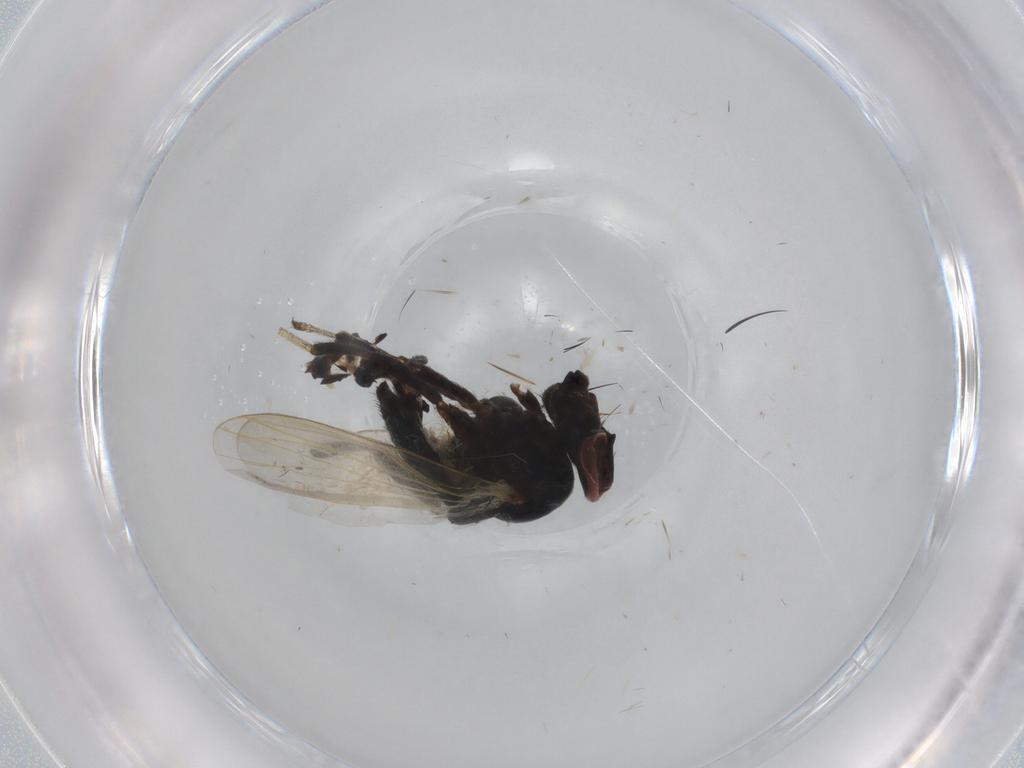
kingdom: Animalia
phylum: Arthropoda
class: Insecta
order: Diptera
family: Lonchaeidae
